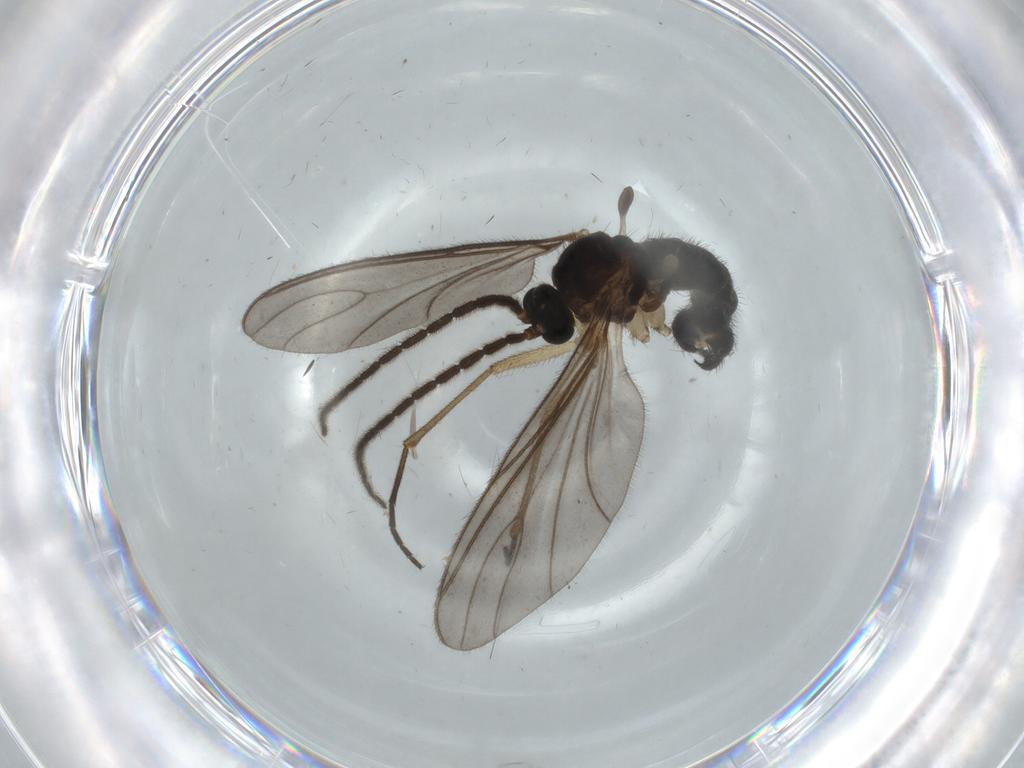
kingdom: Animalia
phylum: Arthropoda
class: Insecta
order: Diptera
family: Sciaridae
